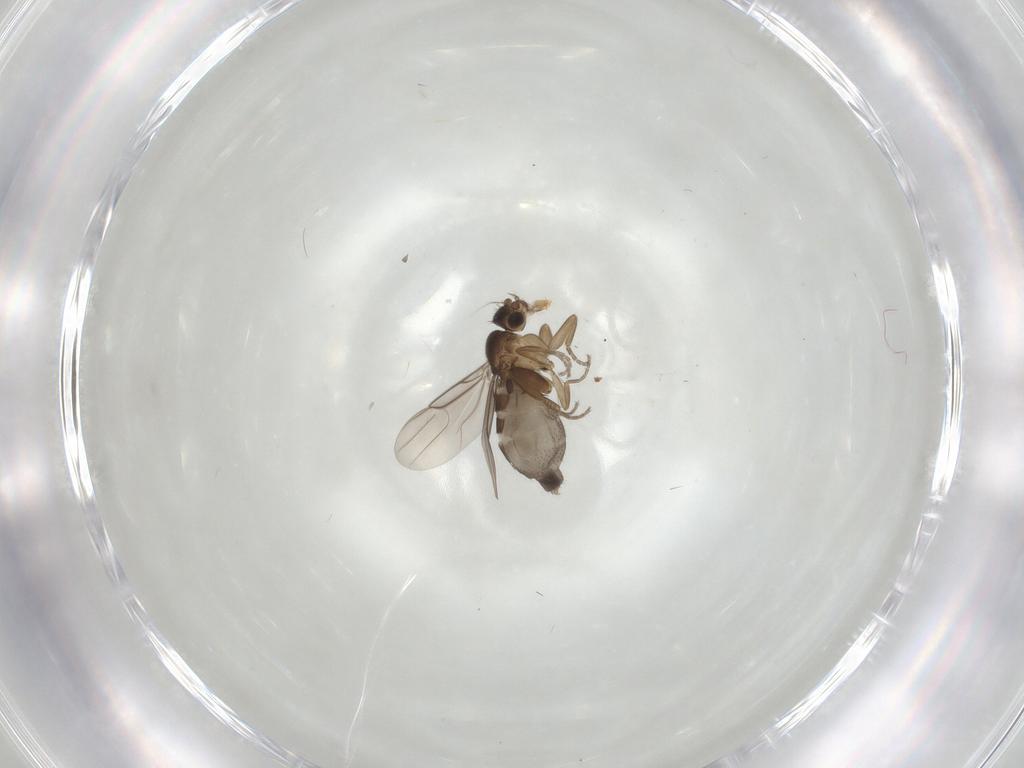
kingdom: Animalia
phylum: Arthropoda
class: Insecta
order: Diptera
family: Phoridae
